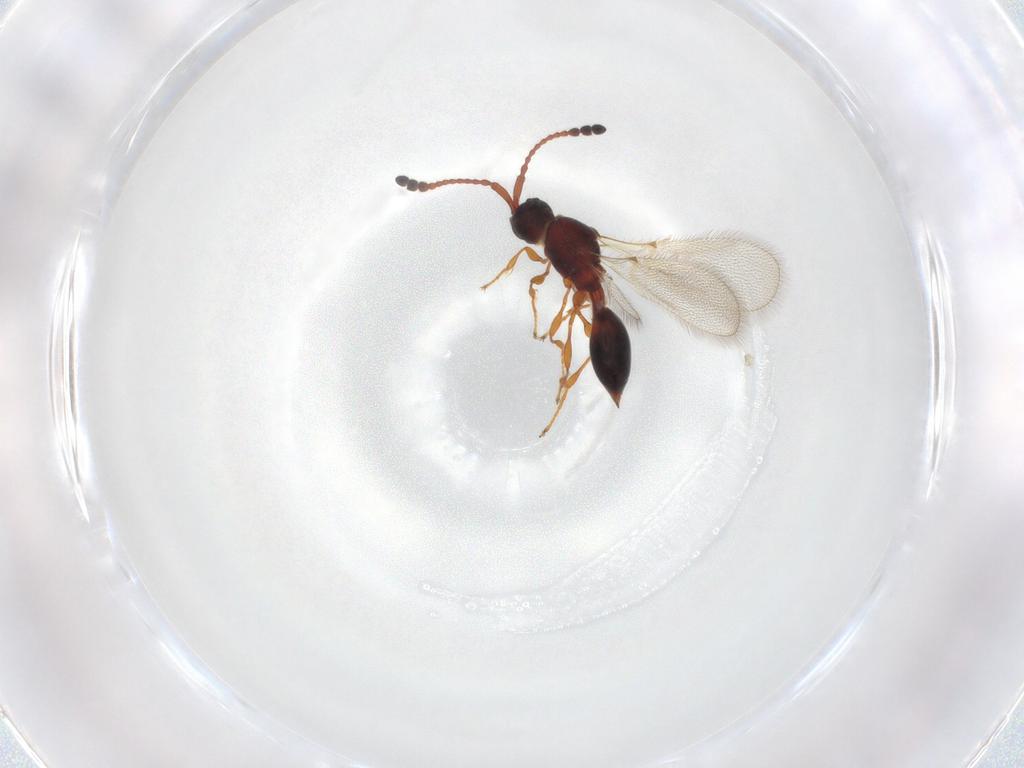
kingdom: Animalia
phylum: Arthropoda
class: Insecta
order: Hymenoptera
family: Diapriidae
